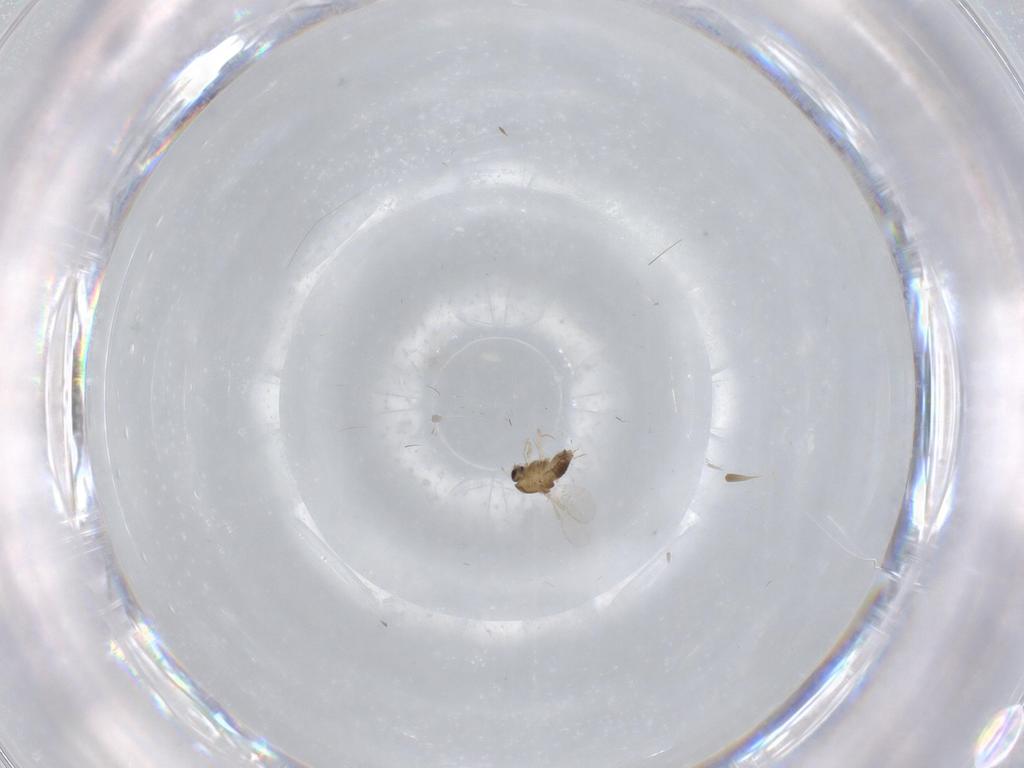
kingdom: Animalia
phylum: Arthropoda
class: Insecta
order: Diptera
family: Chironomidae
